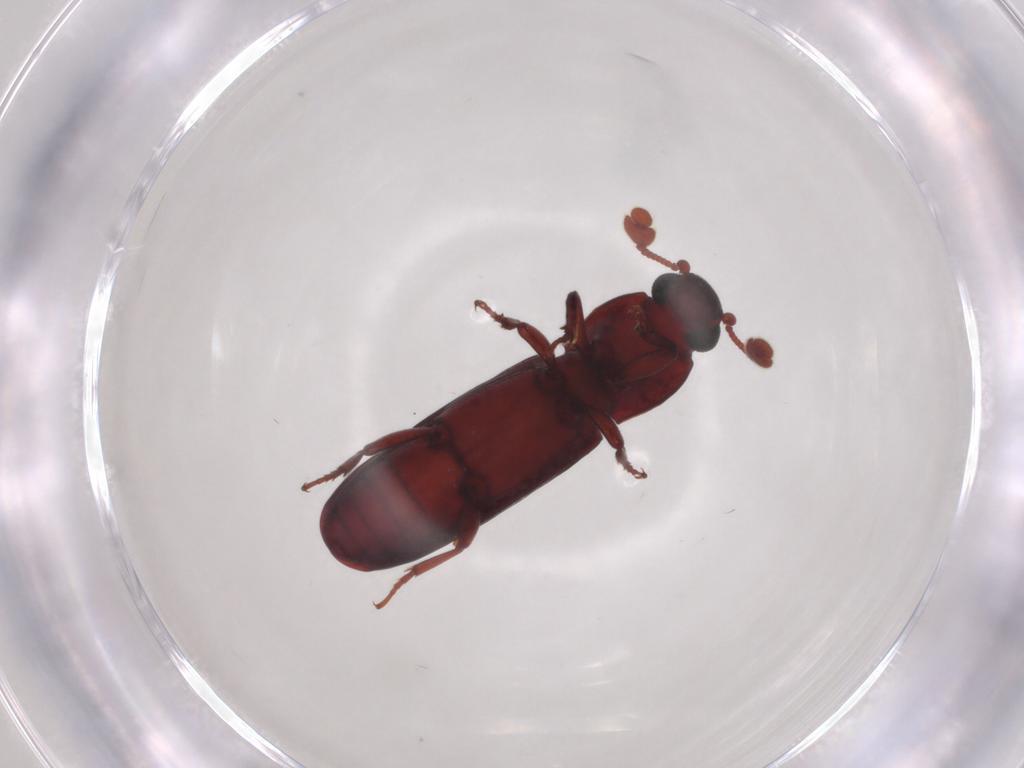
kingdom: Animalia
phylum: Arthropoda
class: Insecta
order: Coleoptera
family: Bothrideridae
